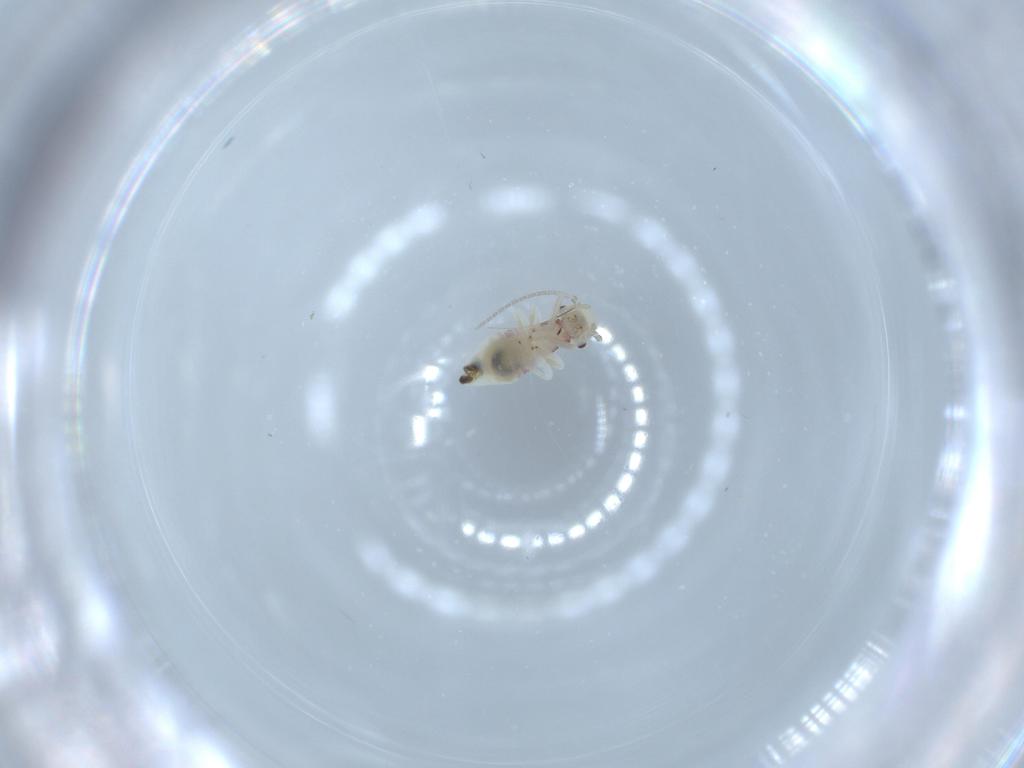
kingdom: Animalia
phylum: Arthropoda
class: Insecta
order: Psocodea
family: Caeciliusidae
